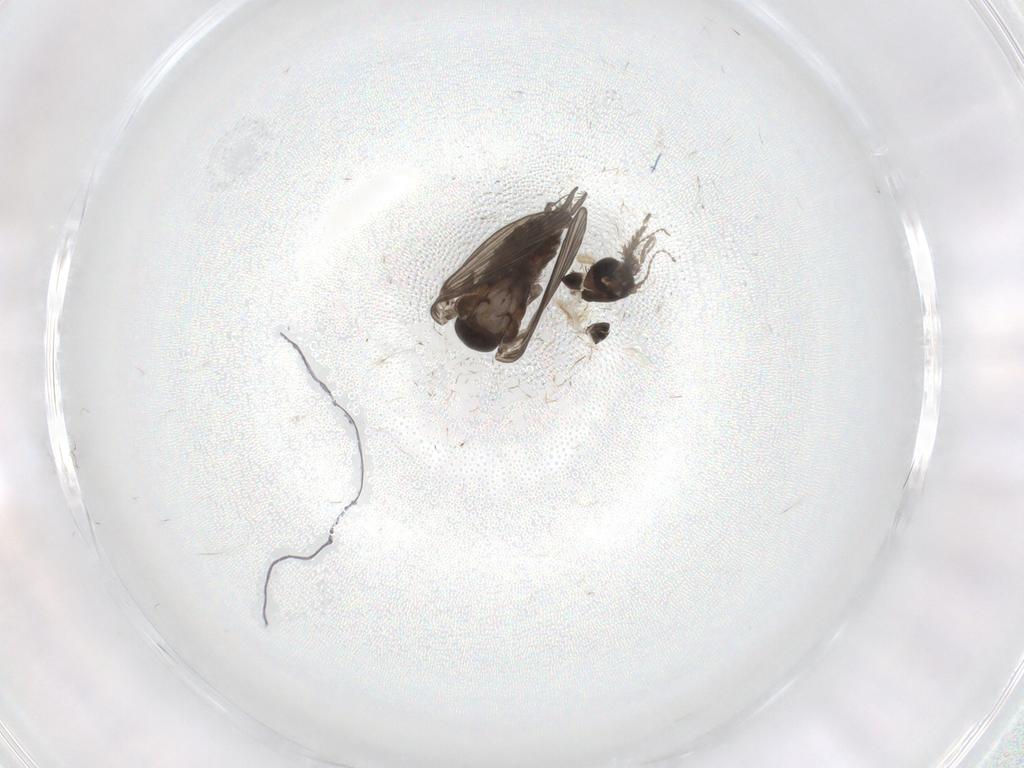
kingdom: Animalia
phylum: Arthropoda
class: Insecta
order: Diptera
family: Psychodidae
